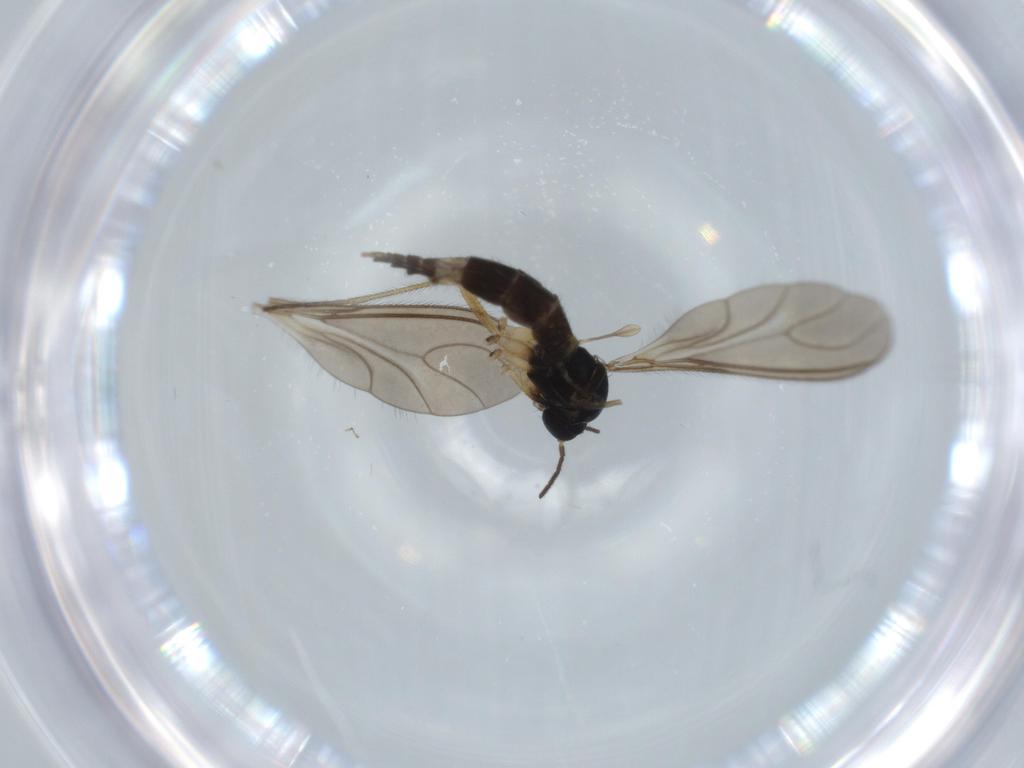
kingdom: Animalia
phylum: Arthropoda
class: Insecta
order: Diptera
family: Sciaridae
